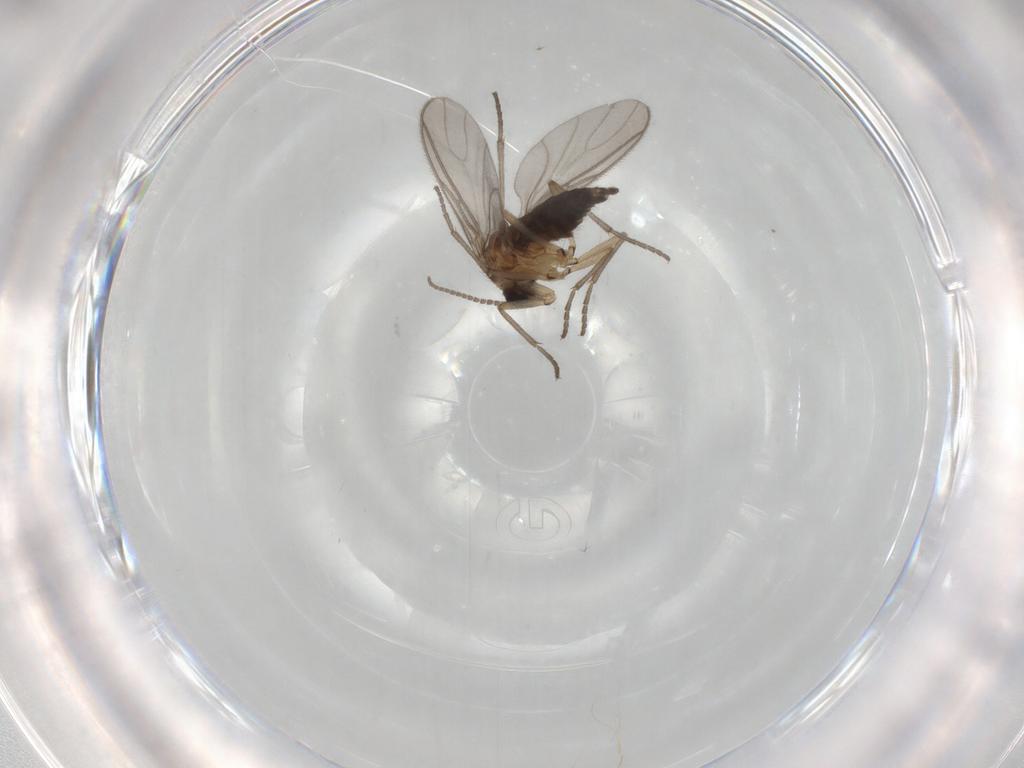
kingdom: Animalia
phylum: Arthropoda
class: Insecta
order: Diptera
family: Sciaridae
